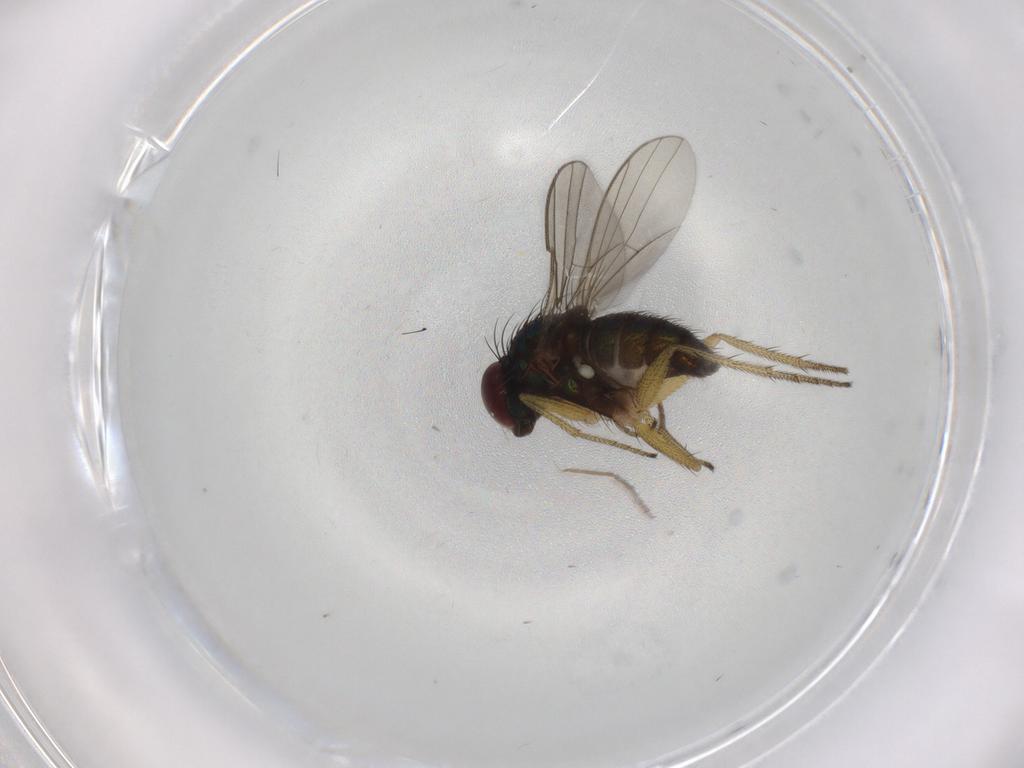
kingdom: Animalia
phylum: Arthropoda
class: Insecta
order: Diptera
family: Dolichopodidae
